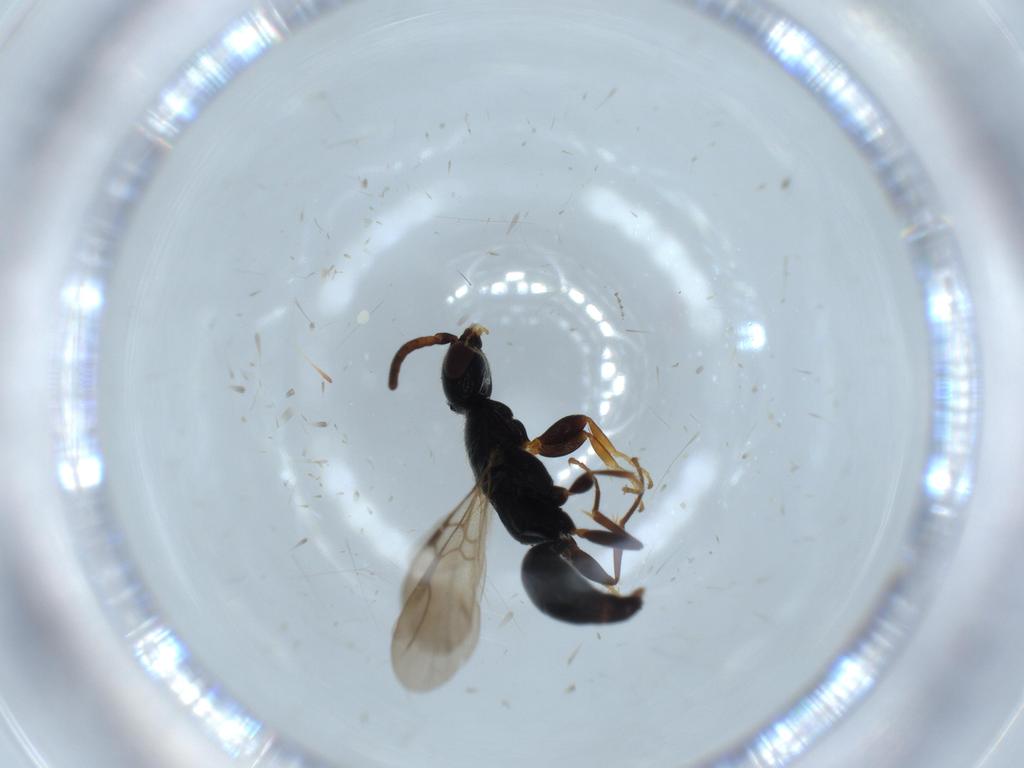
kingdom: Animalia
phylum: Arthropoda
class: Insecta
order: Hymenoptera
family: Bethylidae
